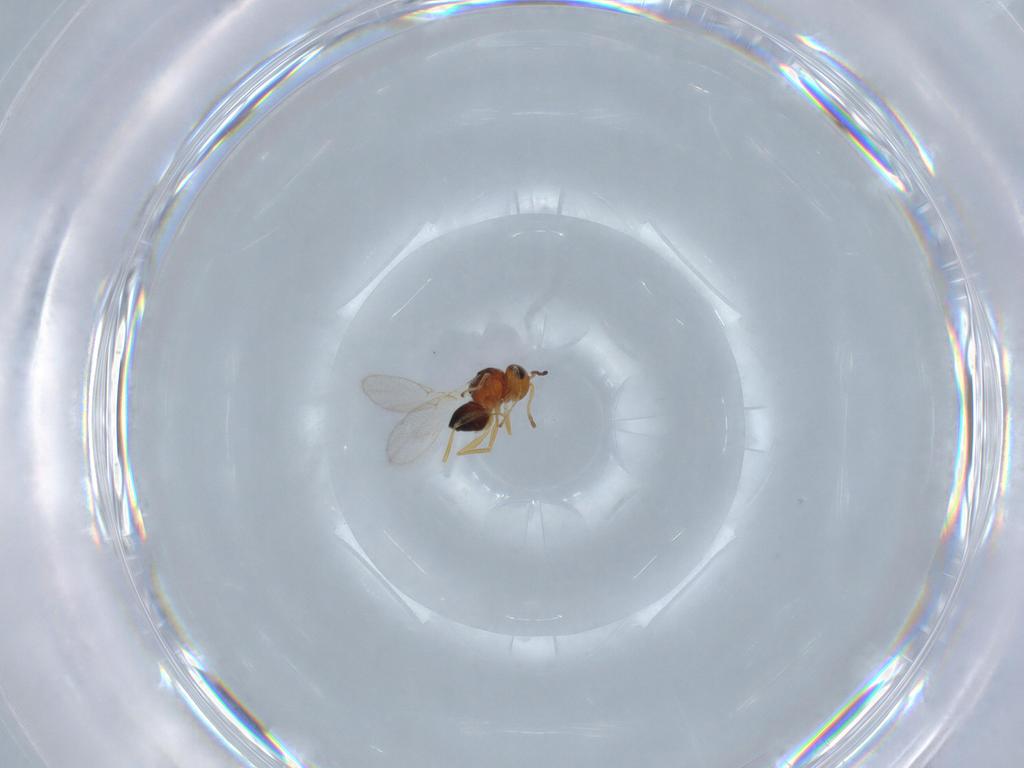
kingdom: Animalia
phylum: Arthropoda
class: Insecta
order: Hymenoptera
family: Figitidae
